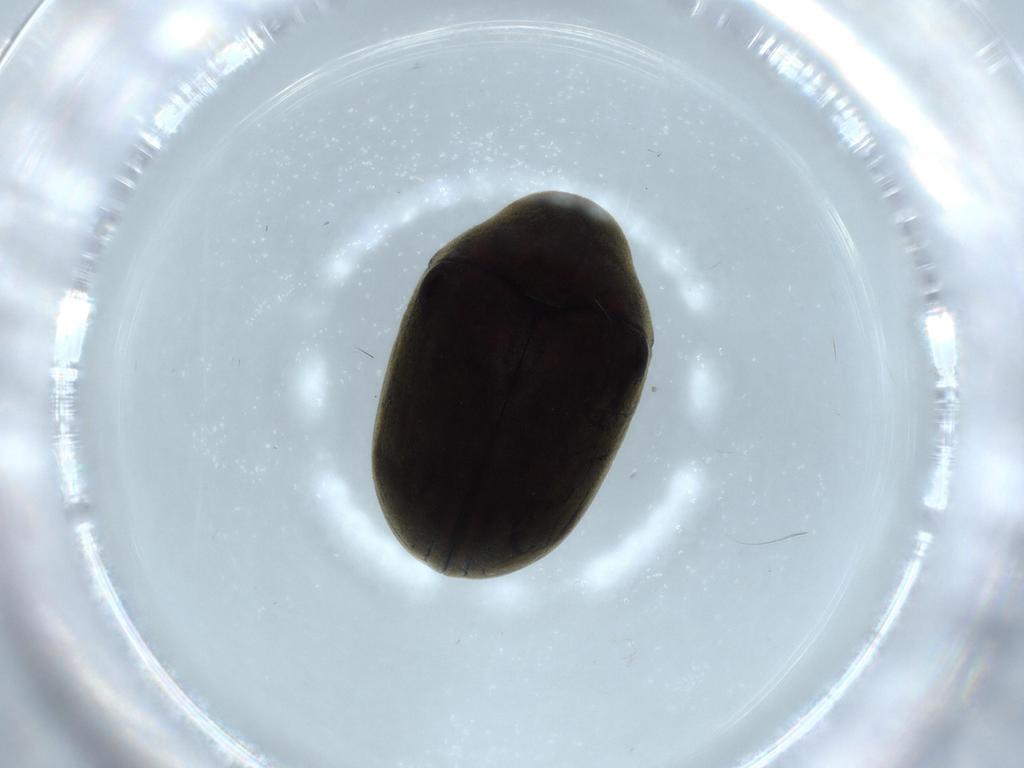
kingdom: Animalia
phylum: Arthropoda
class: Insecta
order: Coleoptera
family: Ptinidae
